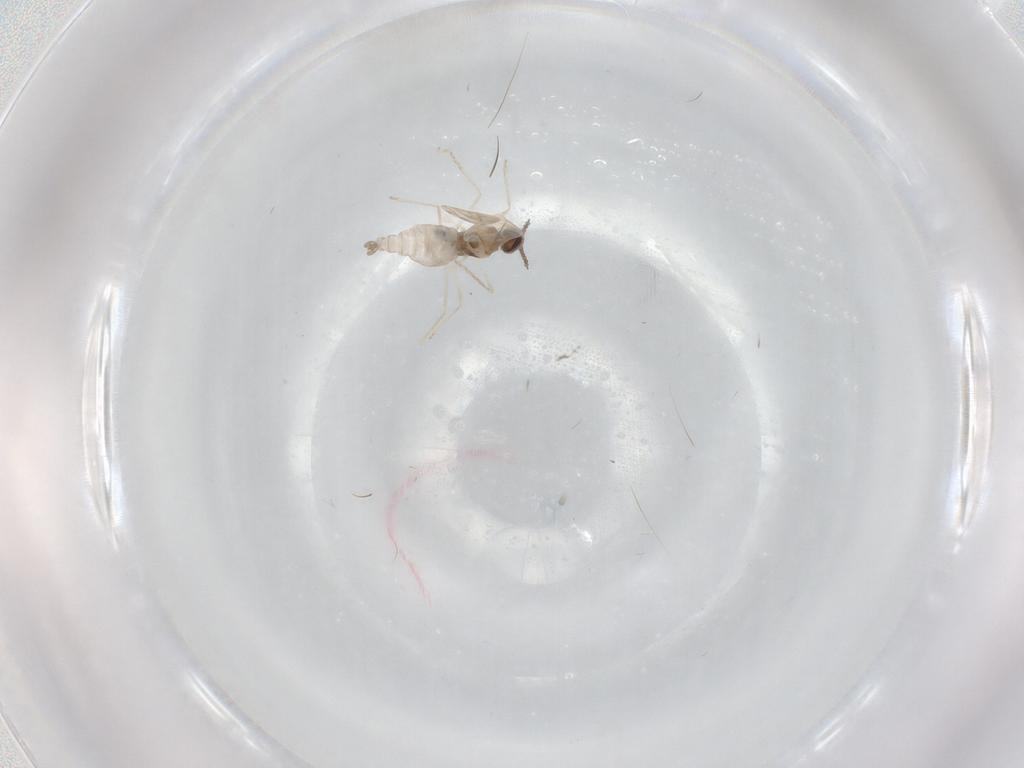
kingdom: Animalia
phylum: Arthropoda
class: Insecta
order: Diptera
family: Cecidomyiidae
